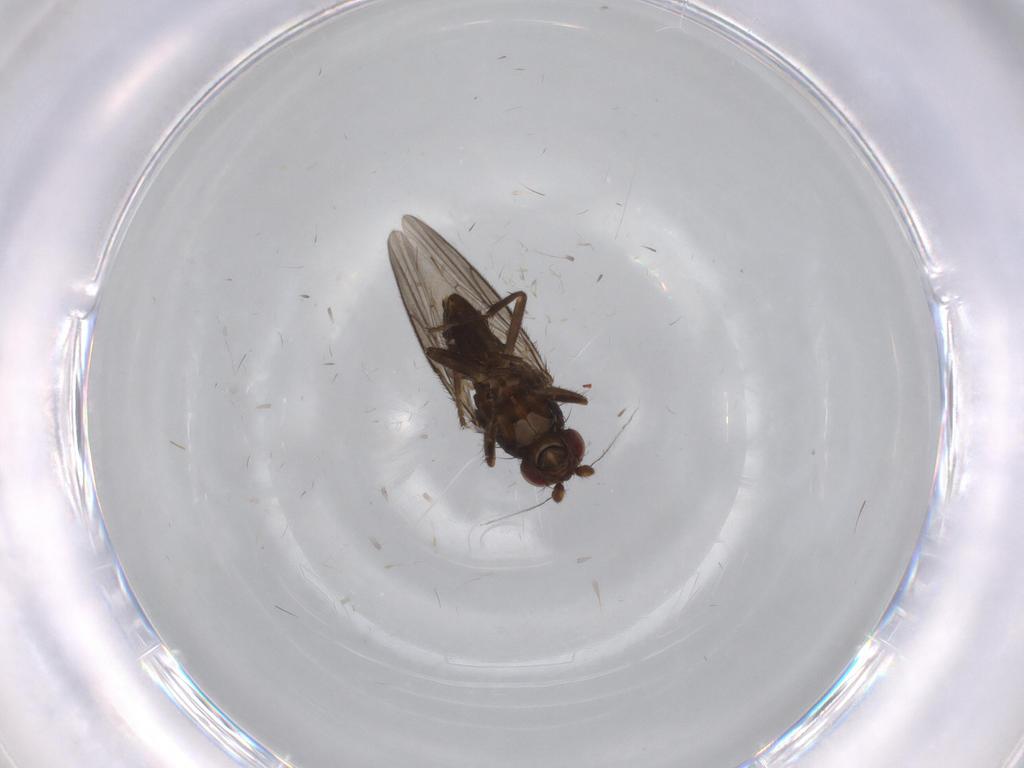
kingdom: Animalia
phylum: Arthropoda
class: Insecta
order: Diptera
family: Sphaeroceridae
